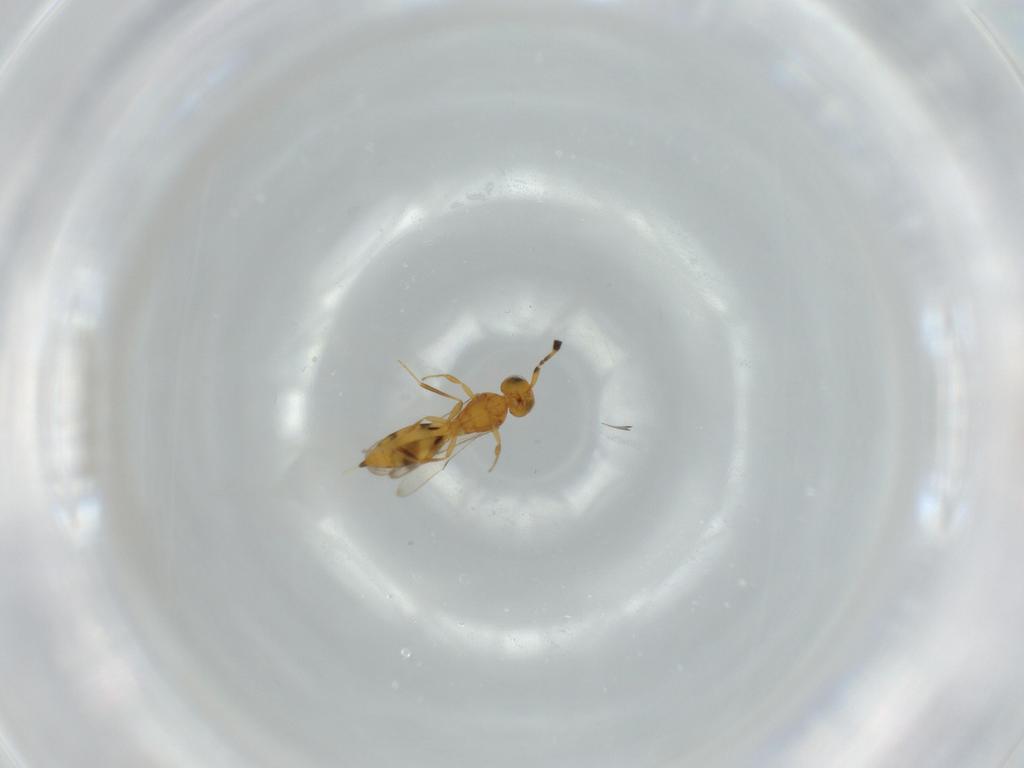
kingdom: Animalia
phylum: Arthropoda
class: Insecta
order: Hymenoptera
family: Scelionidae
